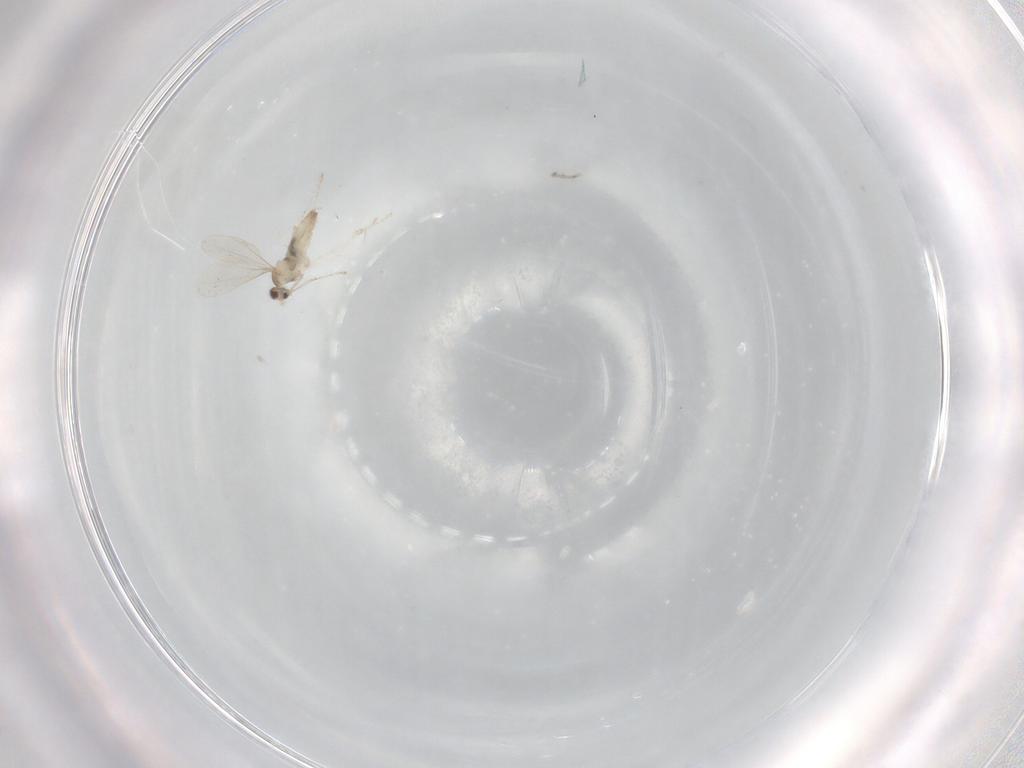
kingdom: Animalia
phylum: Arthropoda
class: Insecta
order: Diptera
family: Cecidomyiidae
